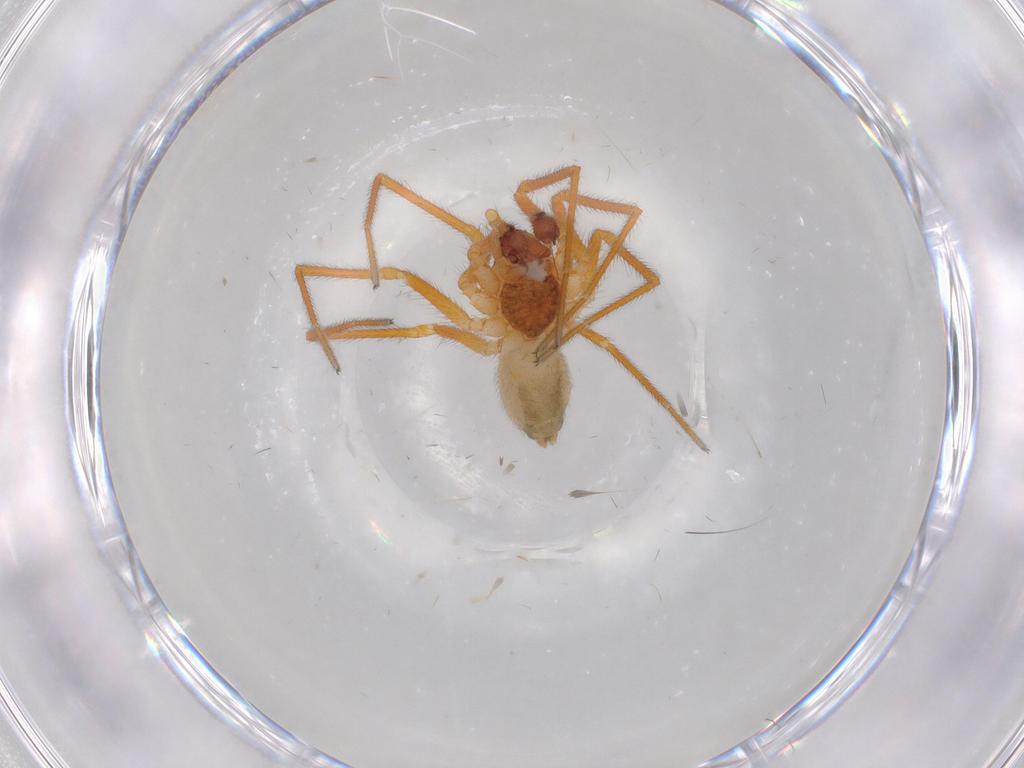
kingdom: Animalia
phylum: Arthropoda
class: Arachnida
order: Araneae
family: Linyphiidae
